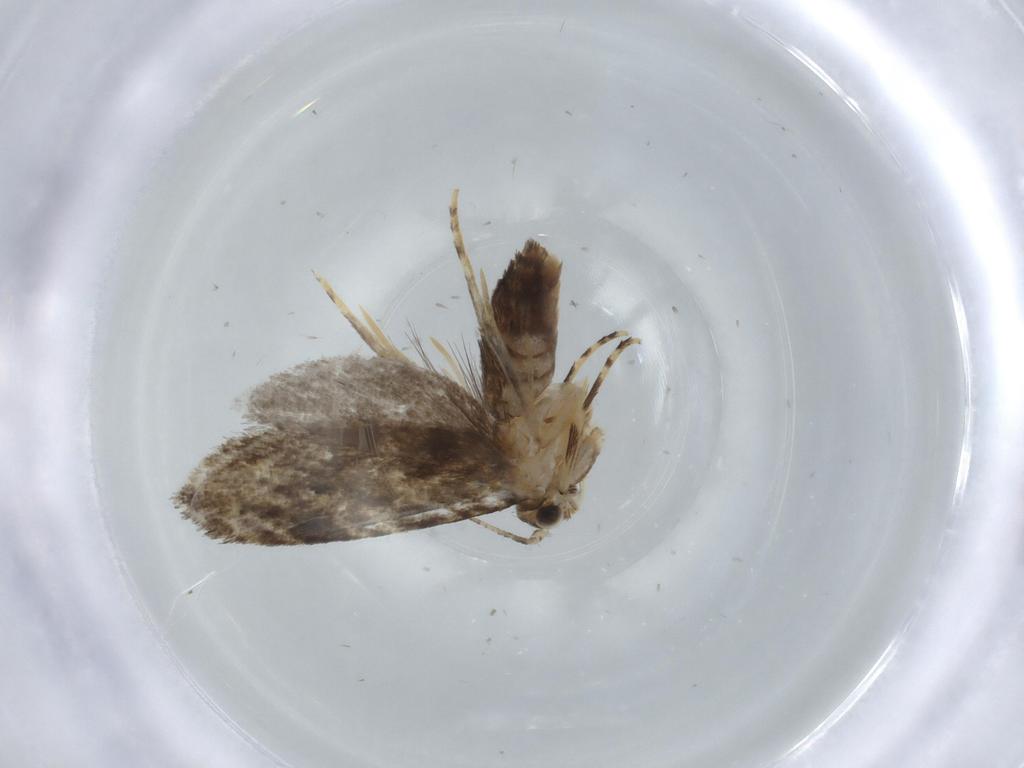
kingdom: Animalia
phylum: Arthropoda
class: Insecta
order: Lepidoptera
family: Tineidae
